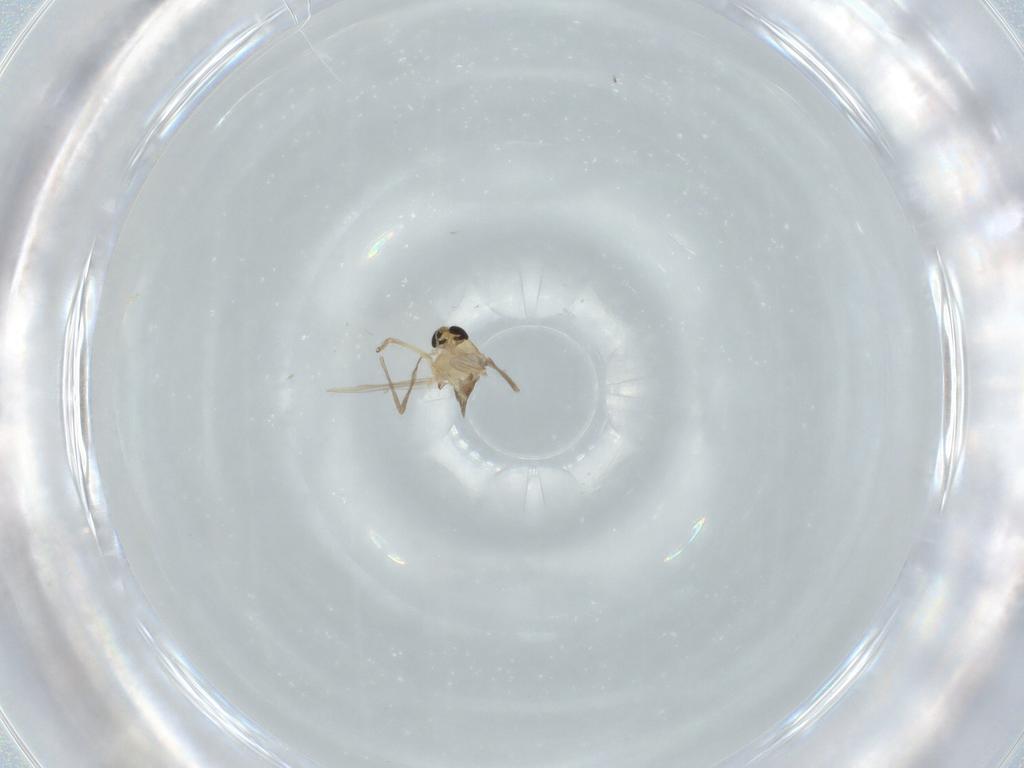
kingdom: Animalia
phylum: Arthropoda
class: Insecta
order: Diptera
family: Chironomidae
